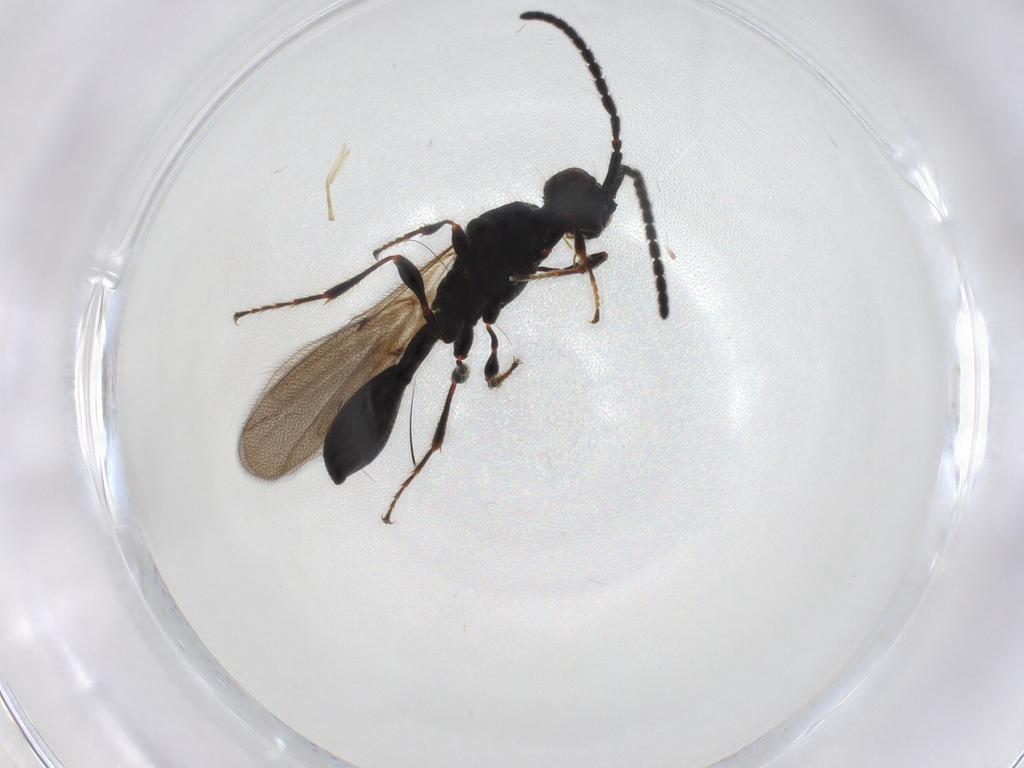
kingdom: Animalia
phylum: Arthropoda
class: Insecta
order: Hymenoptera
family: Diapriidae
